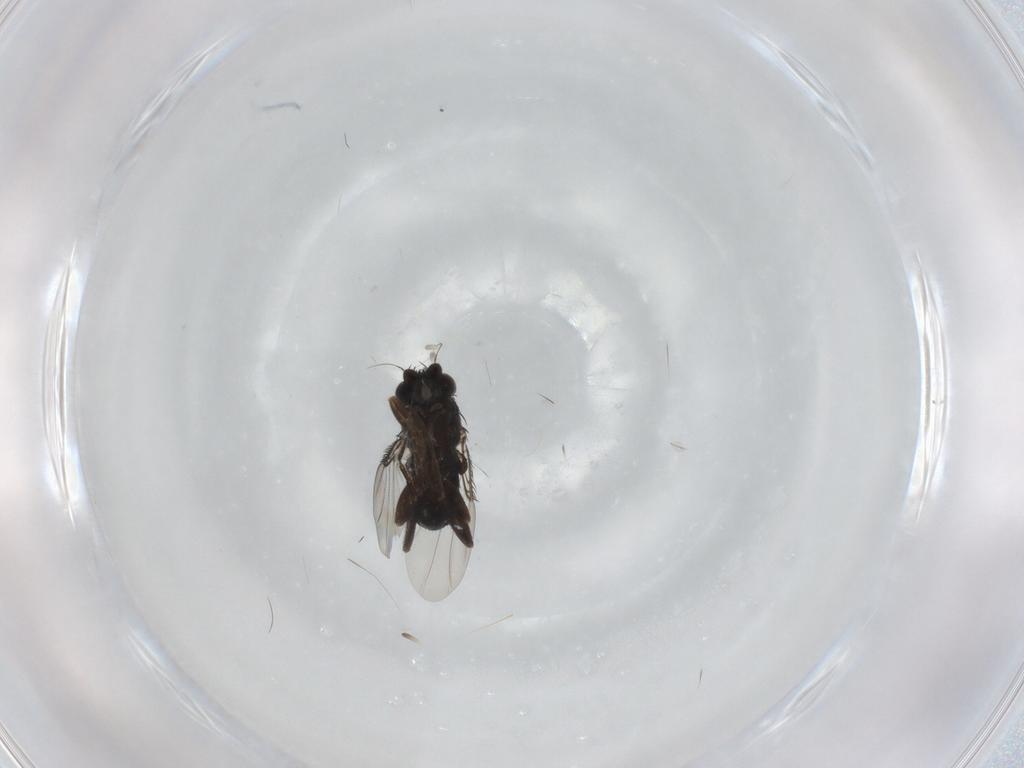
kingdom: Animalia
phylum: Arthropoda
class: Insecta
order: Diptera
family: Phoridae
